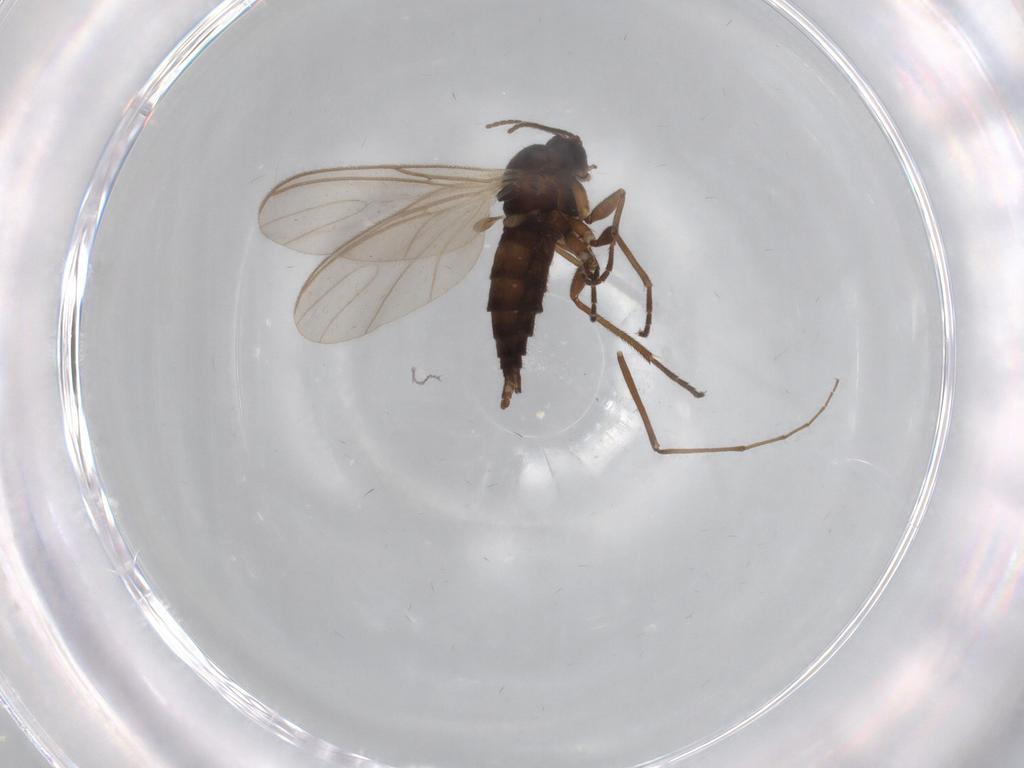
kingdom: Animalia
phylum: Arthropoda
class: Insecta
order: Diptera
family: Sciaridae
